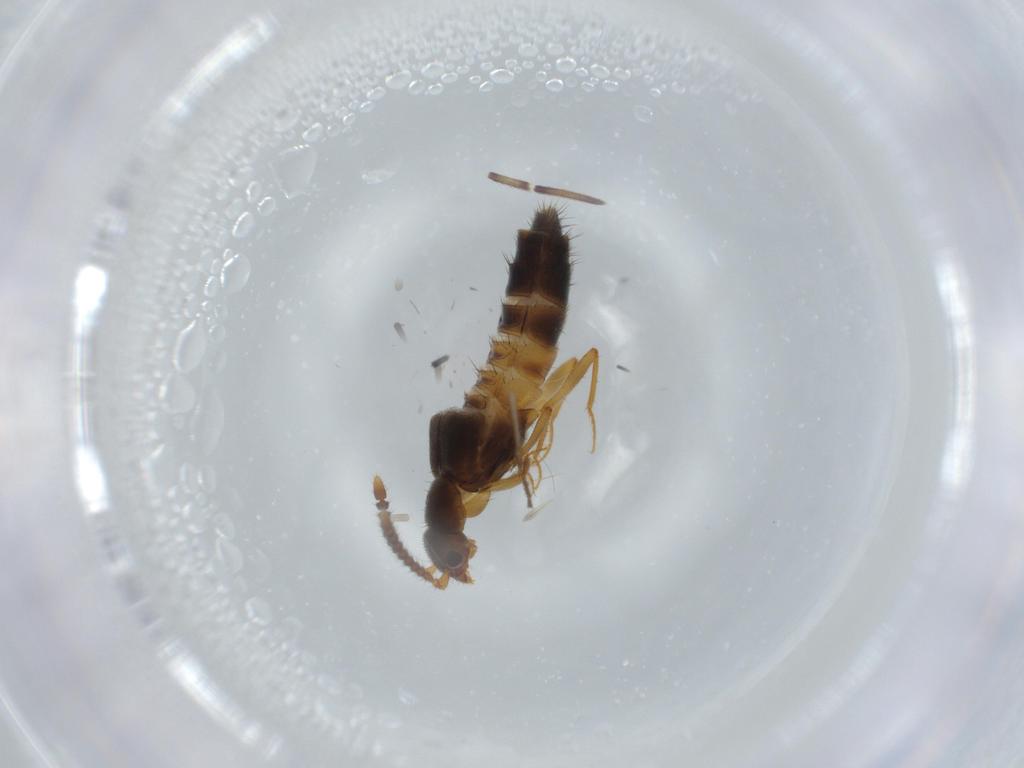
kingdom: Animalia
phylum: Arthropoda
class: Insecta
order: Coleoptera
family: Staphylinidae
